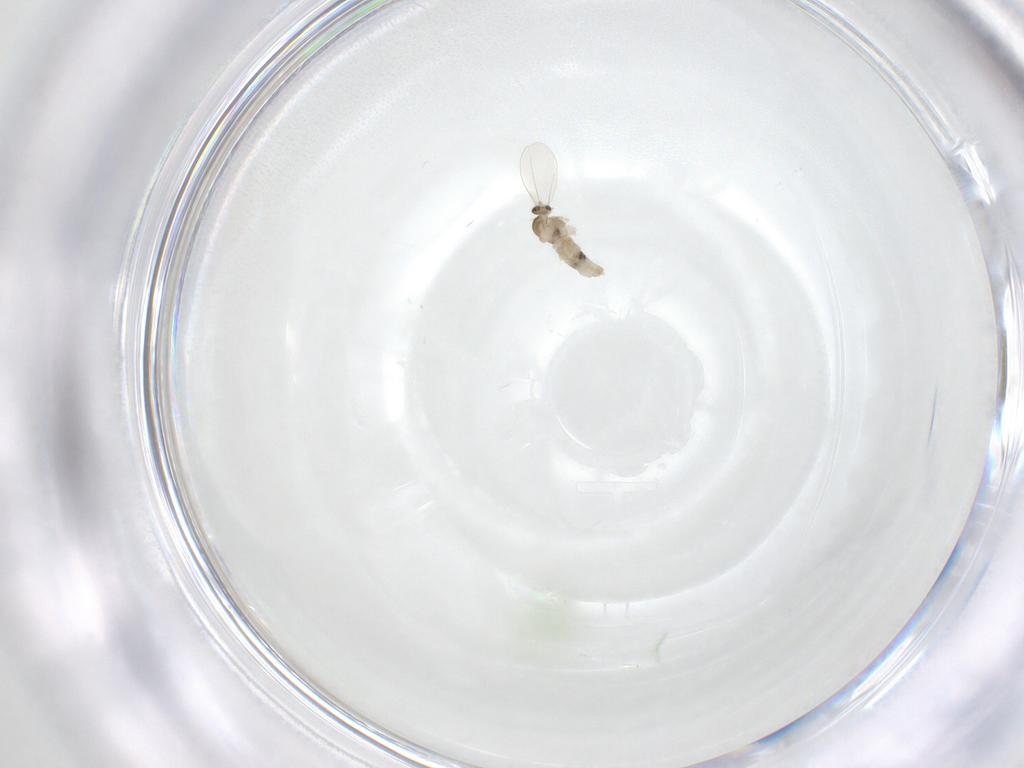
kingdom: Animalia
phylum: Arthropoda
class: Insecta
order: Diptera
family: Cecidomyiidae
